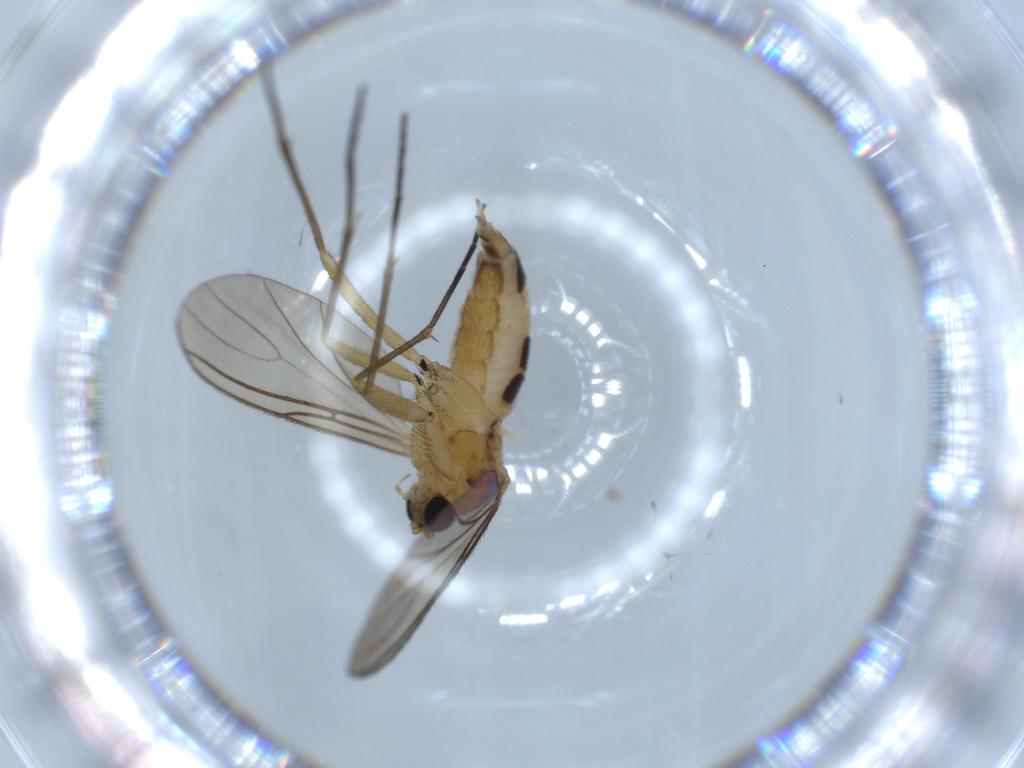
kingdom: Animalia
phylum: Arthropoda
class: Insecta
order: Diptera
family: Sciaridae
